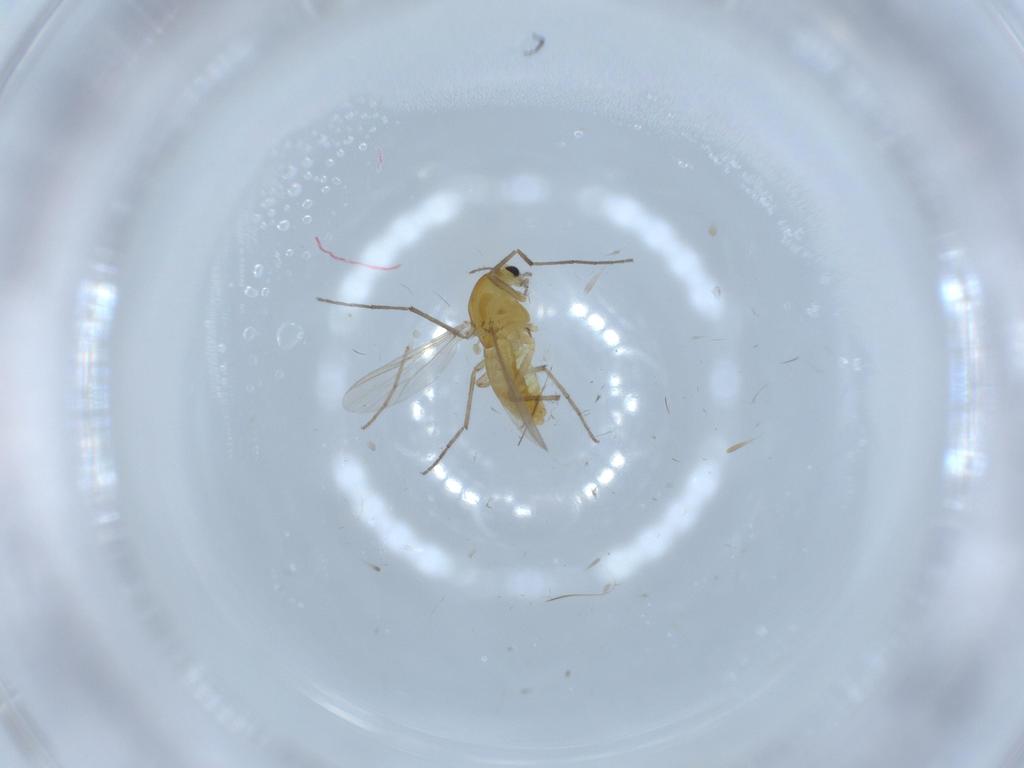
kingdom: Animalia
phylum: Arthropoda
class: Insecta
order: Diptera
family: Chironomidae
